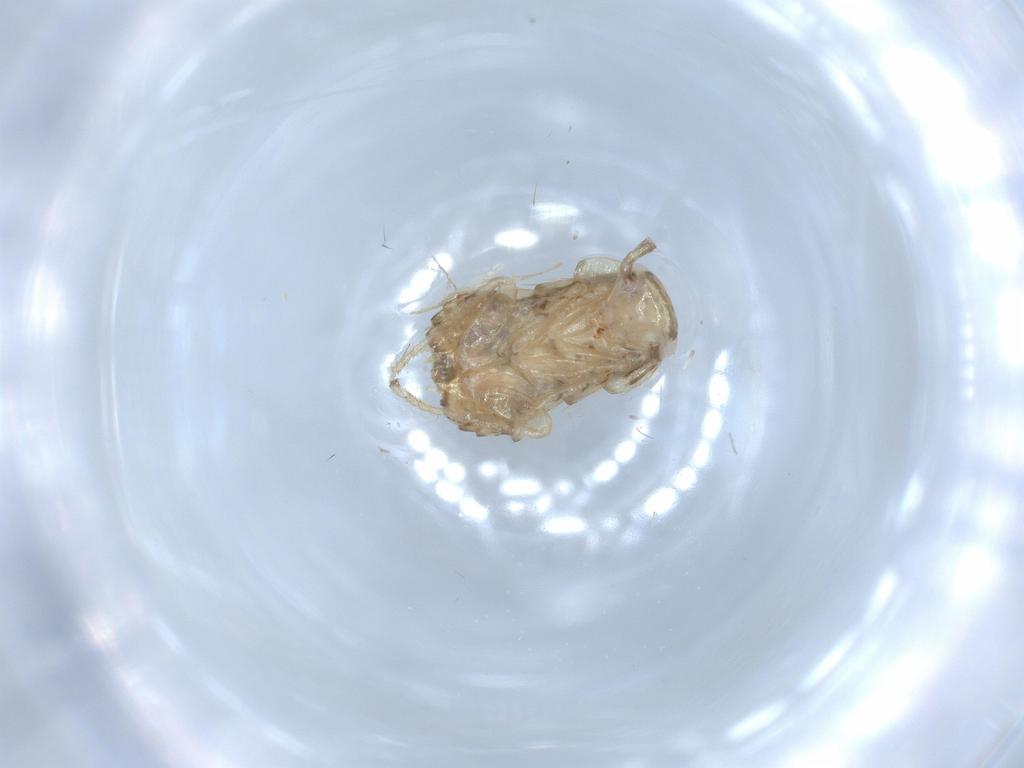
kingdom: Animalia
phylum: Arthropoda
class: Insecta
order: Blattodea
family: Ectobiidae
